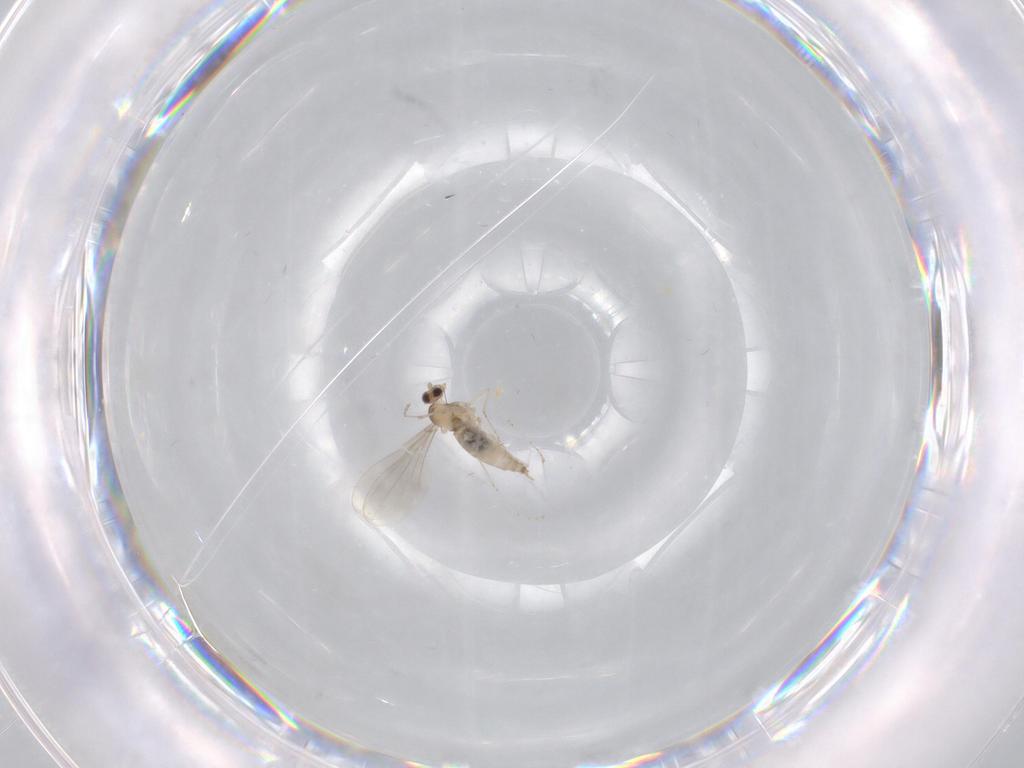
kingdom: Animalia
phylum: Arthropoda
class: Insecta
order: Diptera
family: Cecidomyiidae
